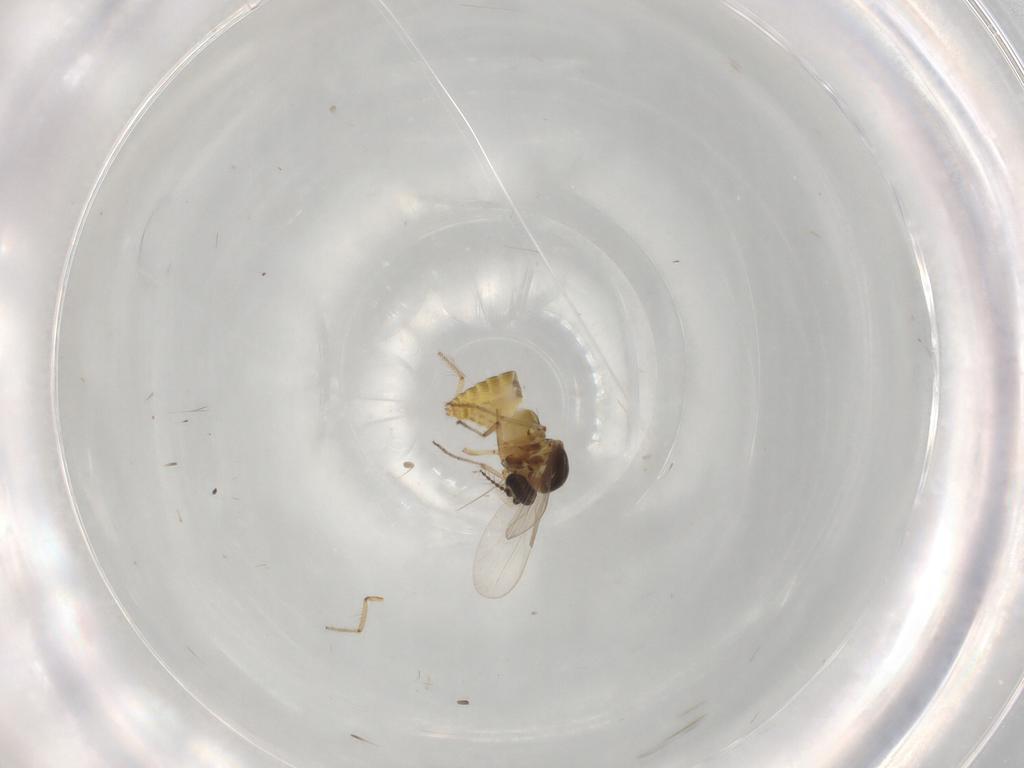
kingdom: Animalia
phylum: Arthropoda
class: Insecta
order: Diptera
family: Ceratopogonidae
